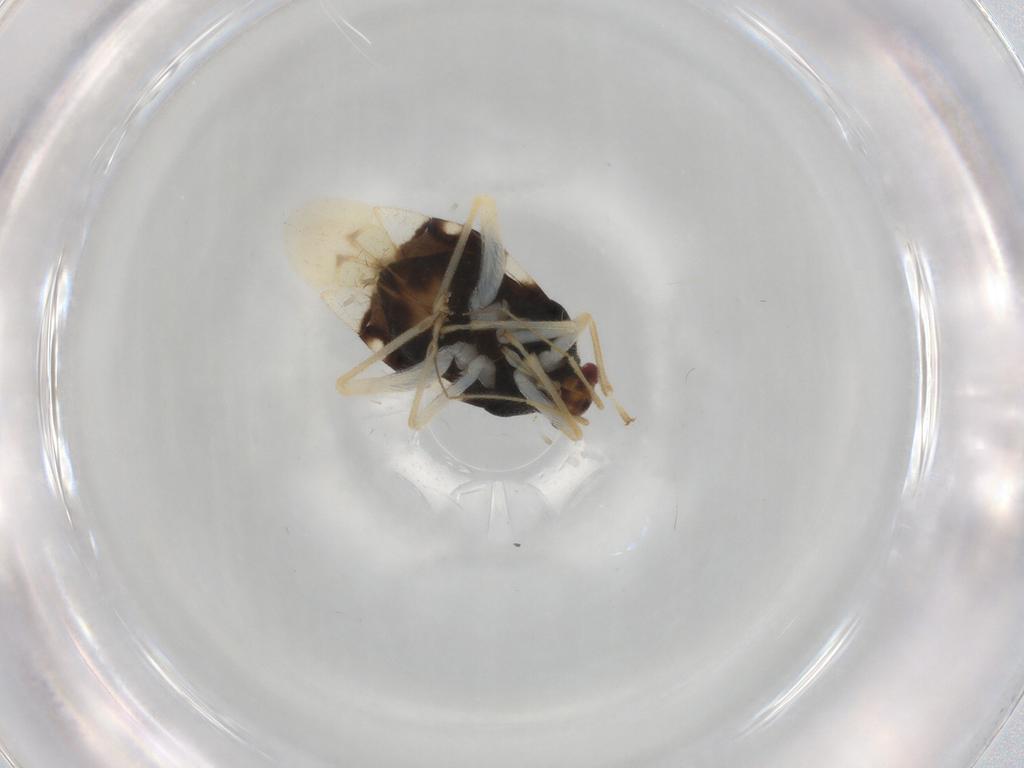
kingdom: Animalia
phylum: Arthropoda
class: Insecta
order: Hemiptera
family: Miridae
